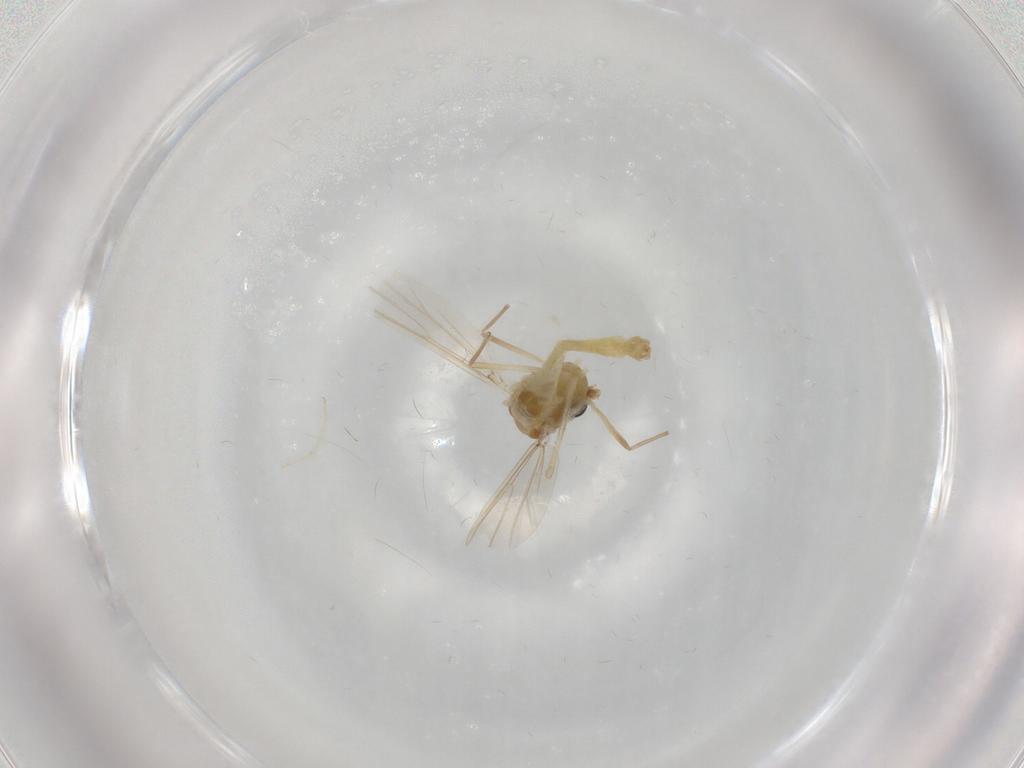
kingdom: Animalia
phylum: Arthropoda
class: Insecta
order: Diptera
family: Chironomidae
